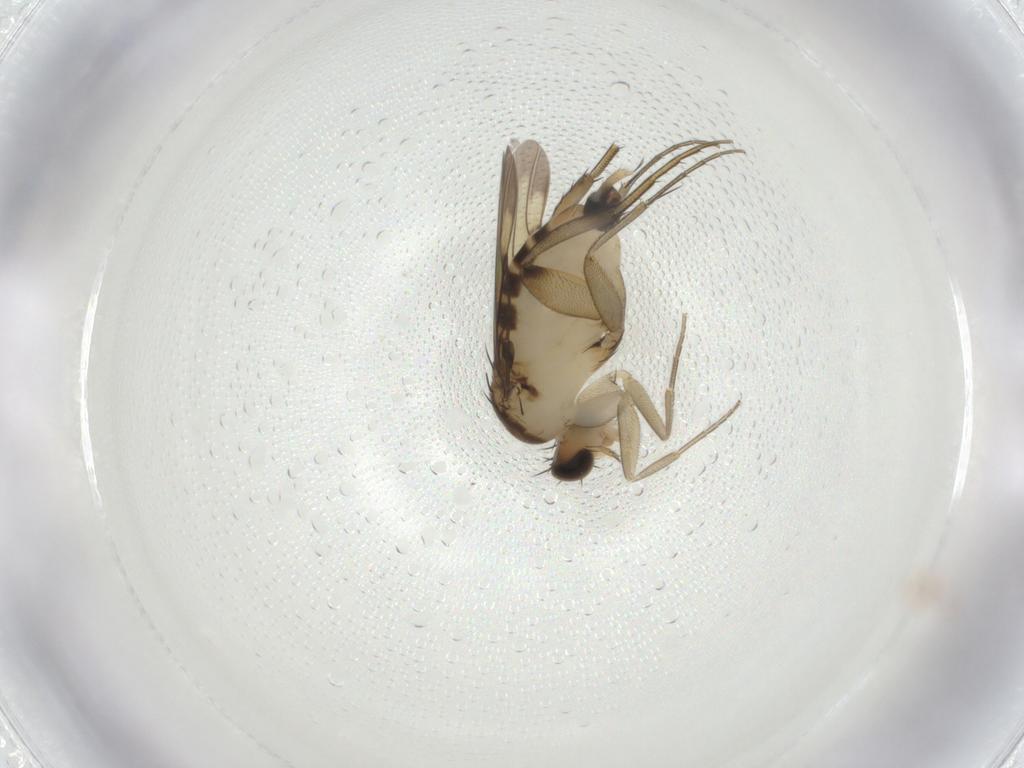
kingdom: Animalia
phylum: Arthropoda
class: Insecta
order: Diptera
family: Phoridae
